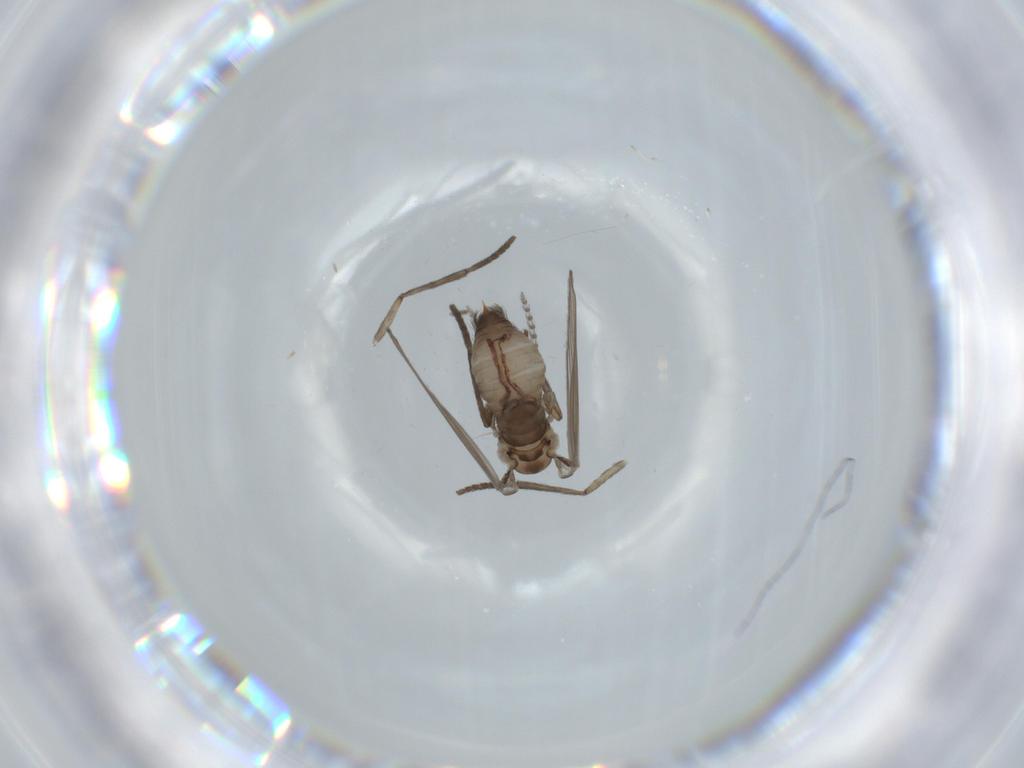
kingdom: Animalia
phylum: Arthropoda
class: Insecta
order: Diptera
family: Psychodidae
